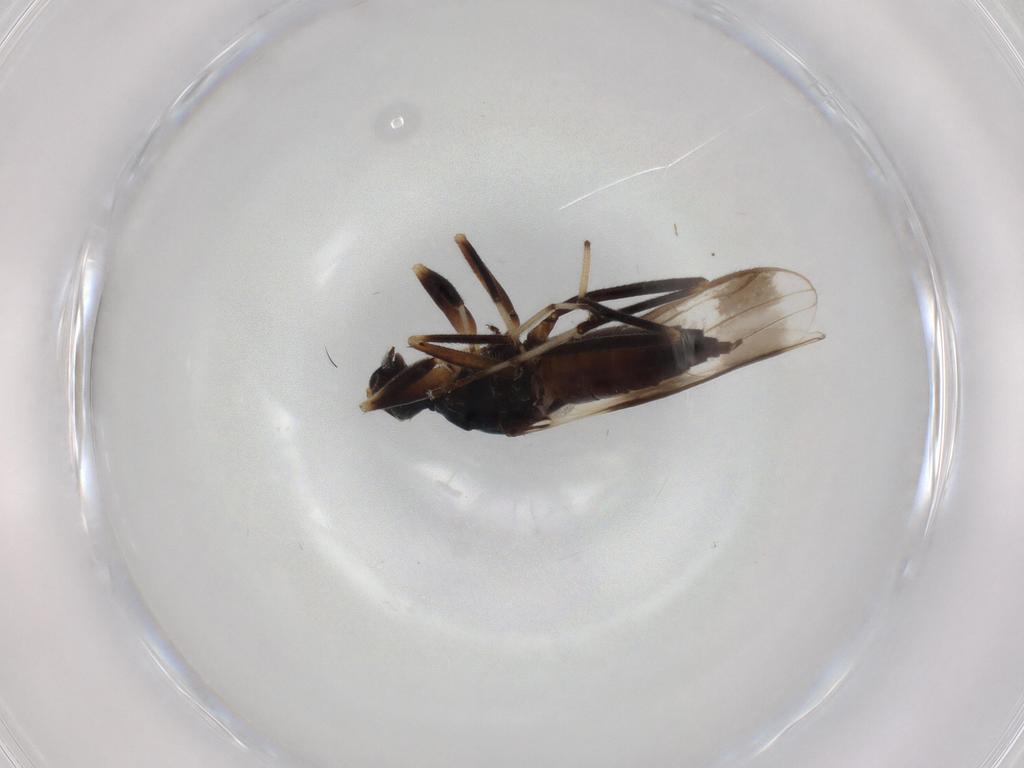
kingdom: Animalia
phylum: Arthropoda
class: Insecta
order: Diptera
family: Hybotidae
